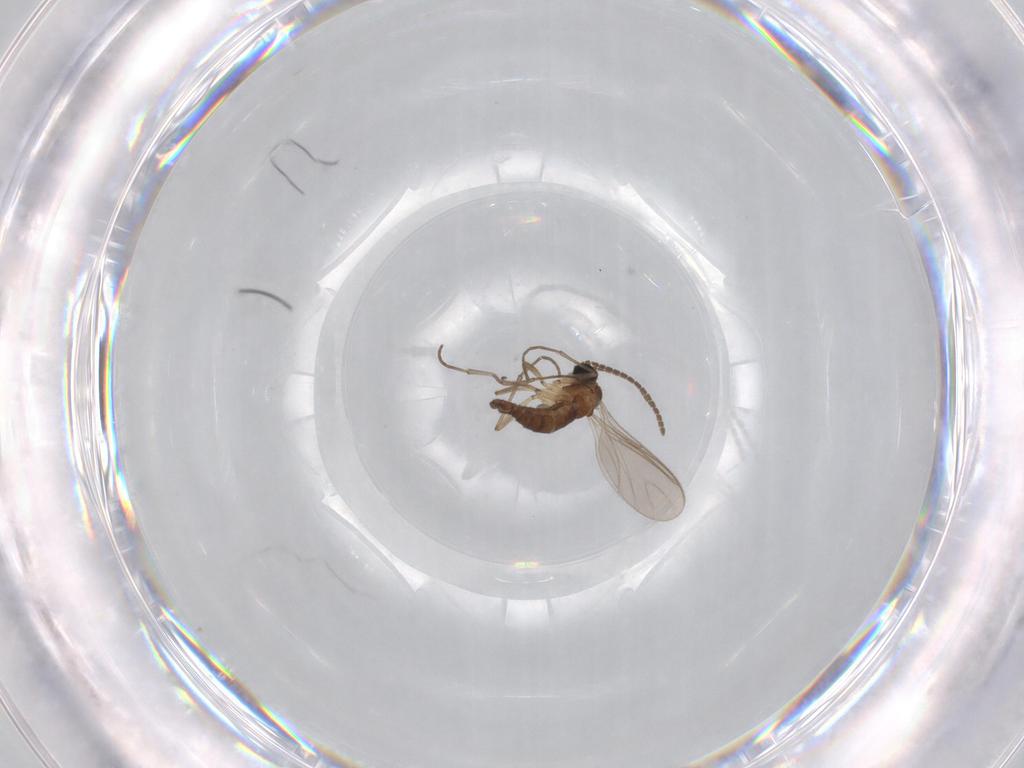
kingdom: Animalia
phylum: Arthropoda
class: Insecta
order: Diptera
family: Sciaridae
